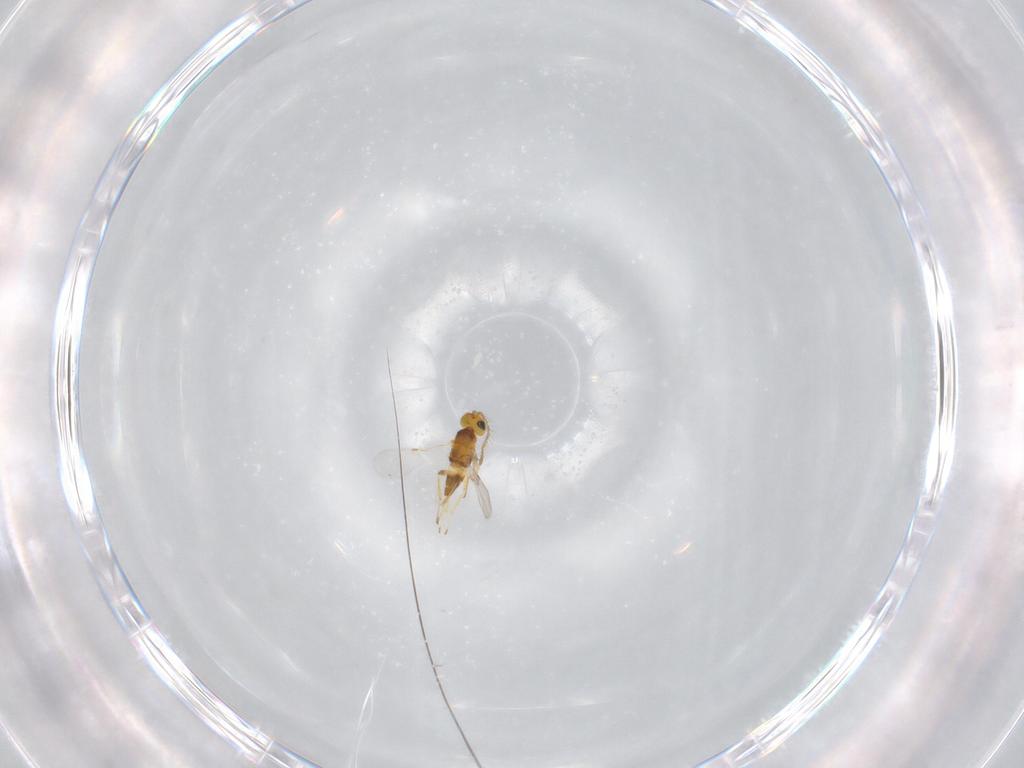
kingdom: Animalia
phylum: Arthropoda
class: Insecta
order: Hymenoptera
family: Encyrtidae
